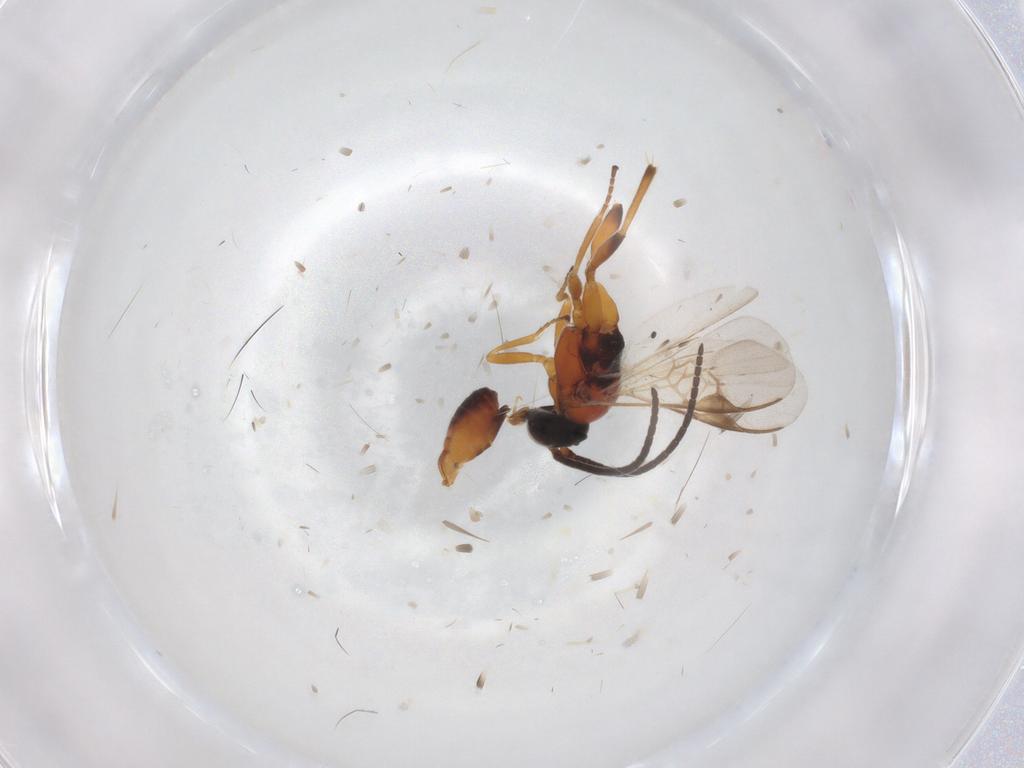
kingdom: Animalia
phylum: Arthropoda
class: Insecta
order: Hymenoptera
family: Braconidae
